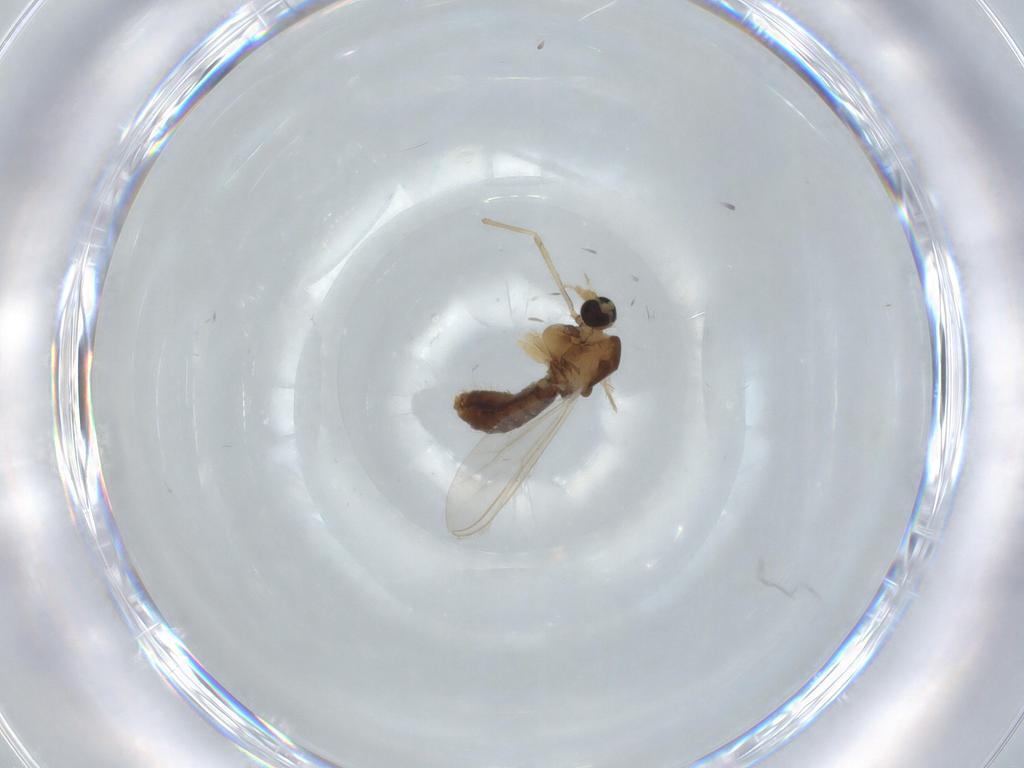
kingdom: Animalia
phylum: Arthropoda
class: Insecta
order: Diptera
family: Chironomidae
